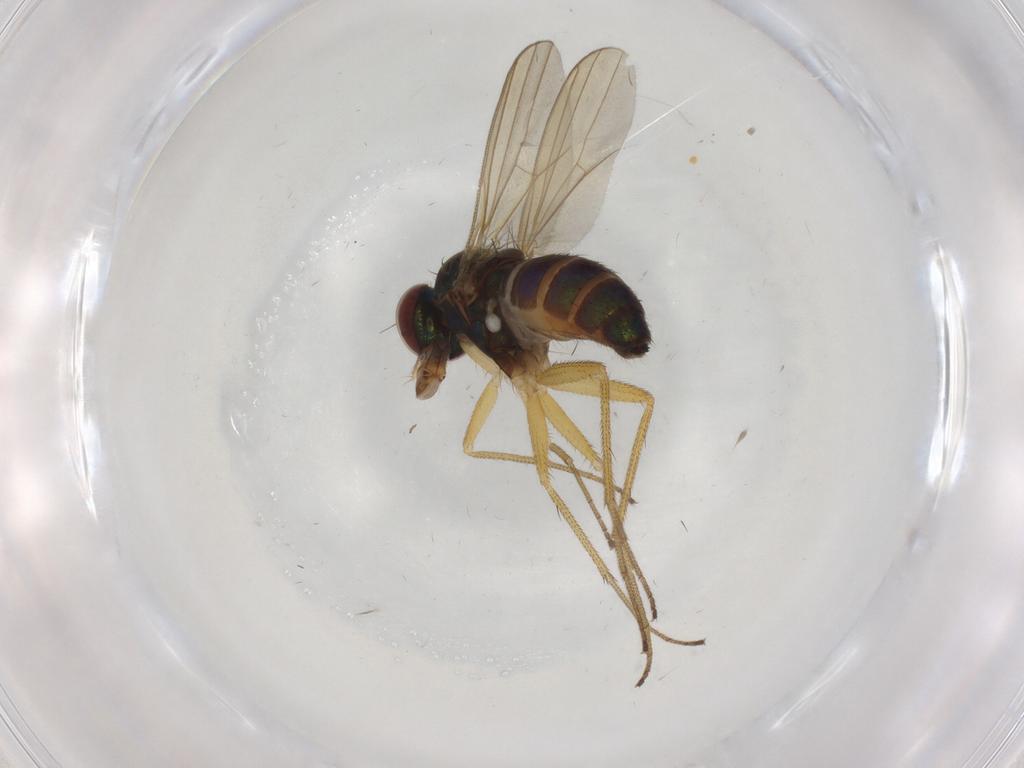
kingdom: Animalia
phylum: Arthropoda
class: Insecta
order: Diptera
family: Dolichopodidae
